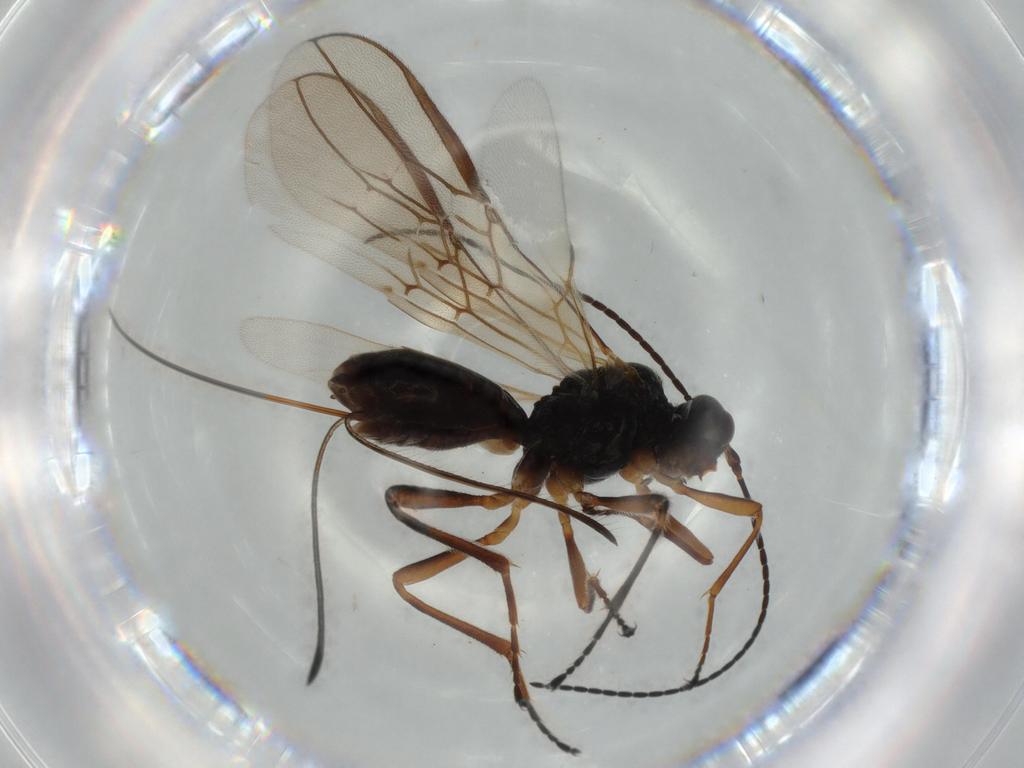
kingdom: Animalia
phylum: Arthropoda
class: Insecta
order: Hymenoptera
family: Braconidae
